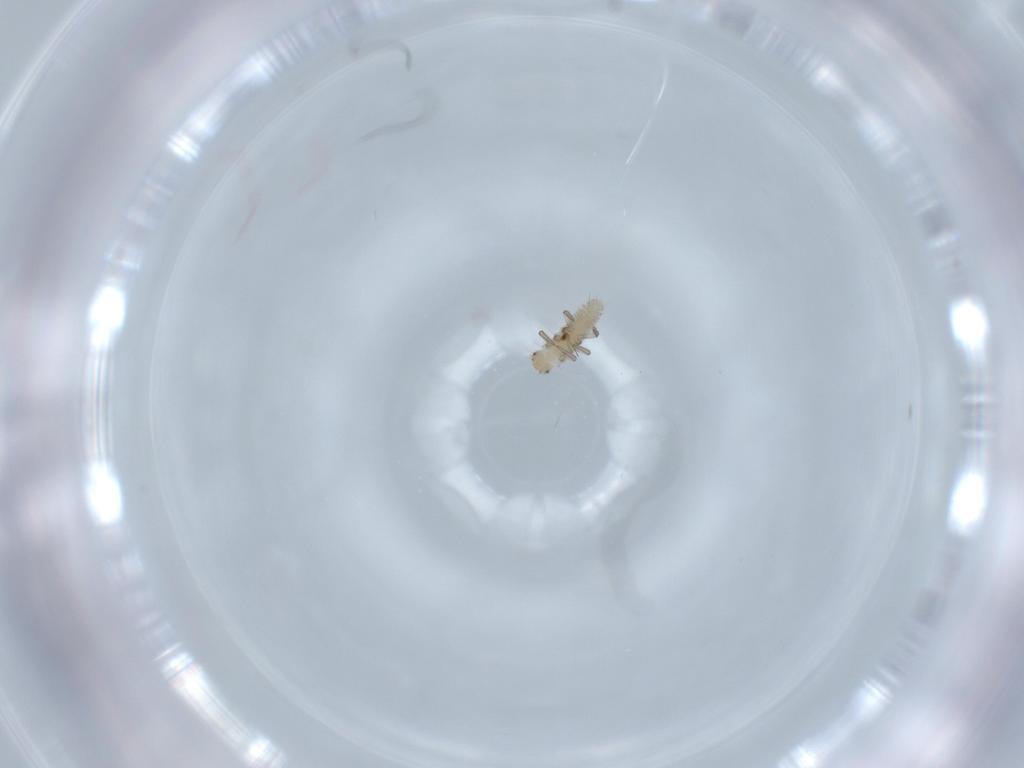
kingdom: Animalia
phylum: Arthropoda
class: Insecta
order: Coleoptera
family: Coccinellidae
